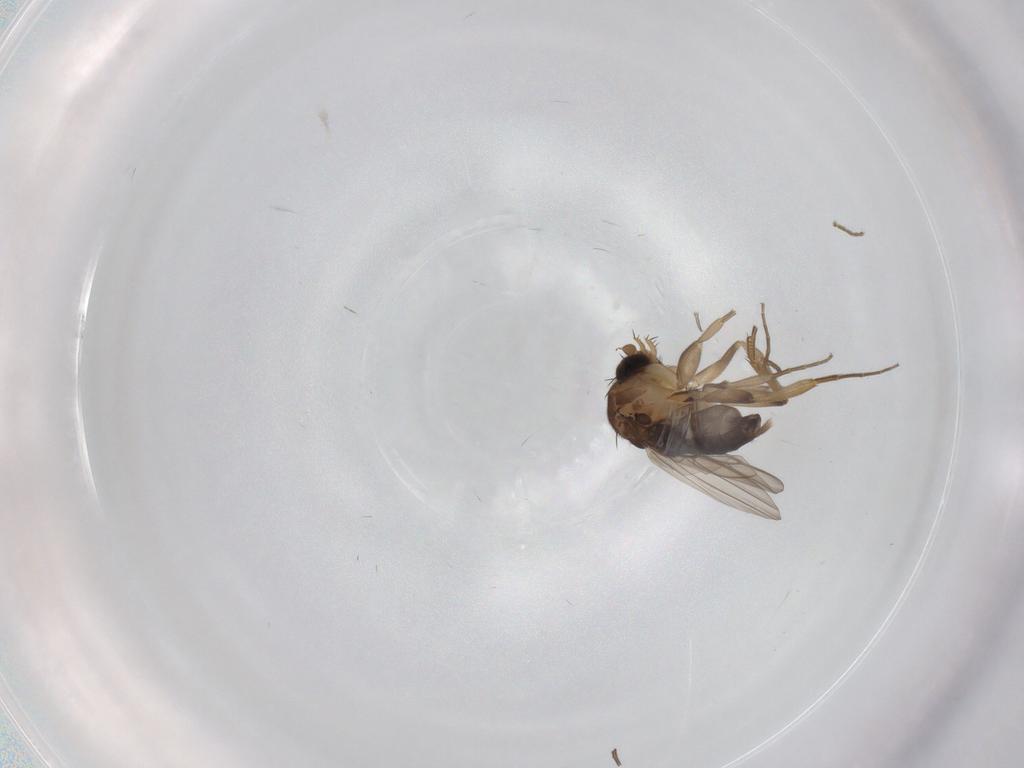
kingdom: Animalia
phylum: Arthropoda
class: Insecta
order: Diptera
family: Phoridae
